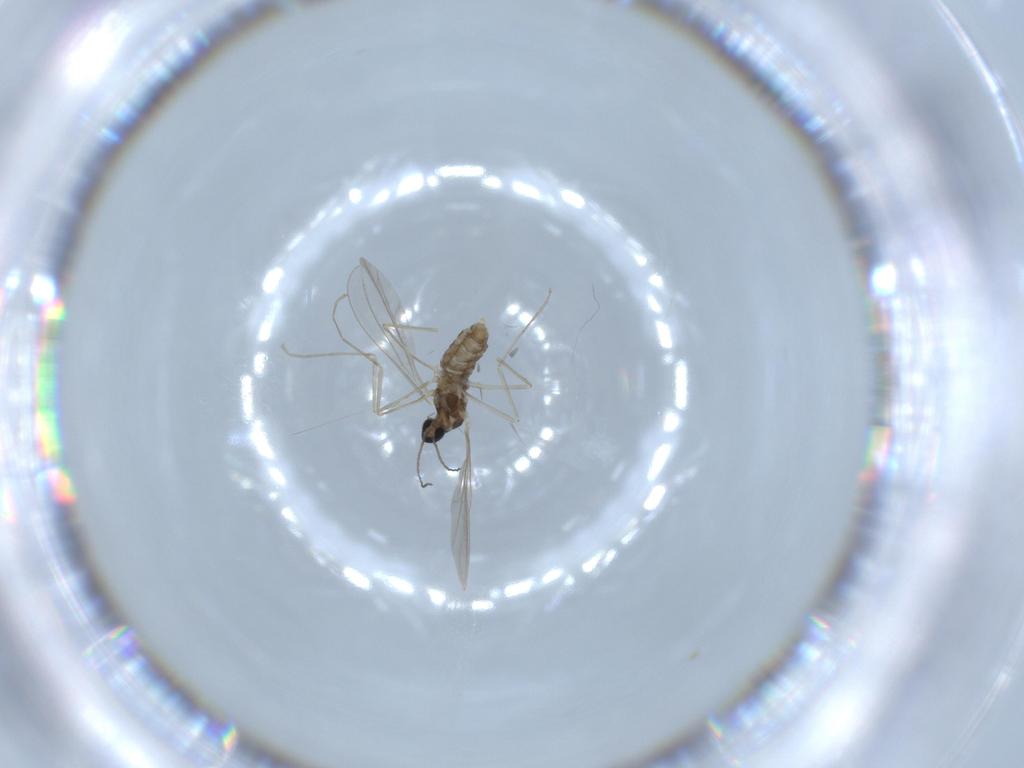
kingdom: Animalia
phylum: Arthropoda
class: Insecta
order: Diptera
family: Cecidomyiidae
